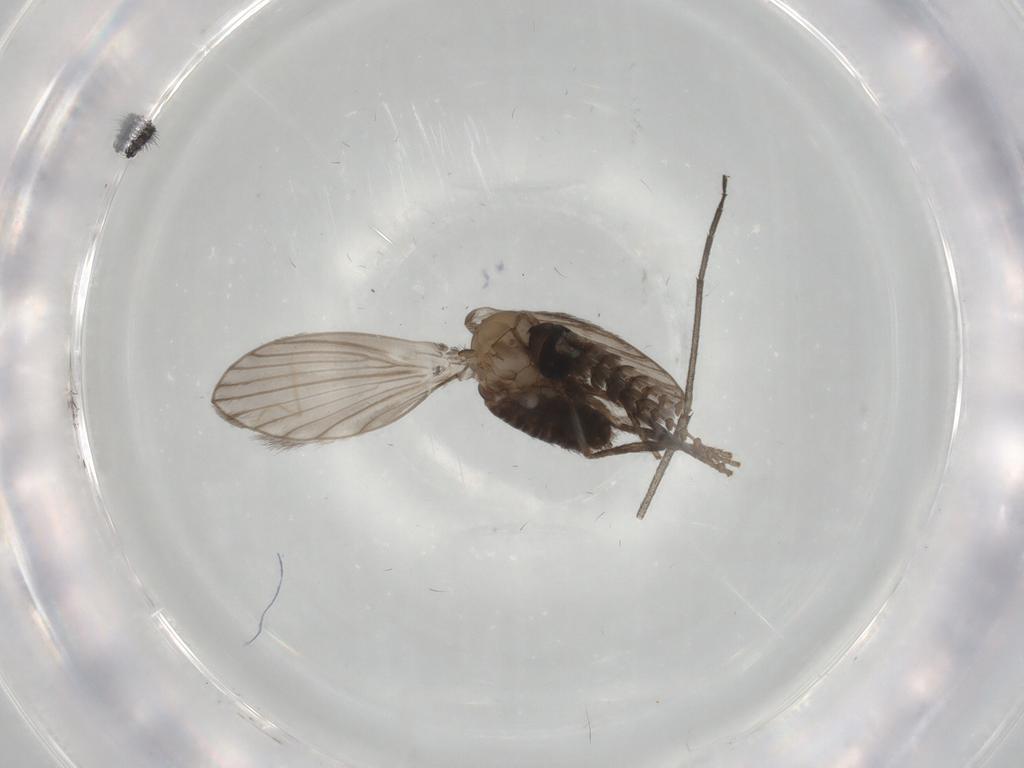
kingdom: Animalia
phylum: Arthropoda
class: Insecta
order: Diptera
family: Limoniidae
